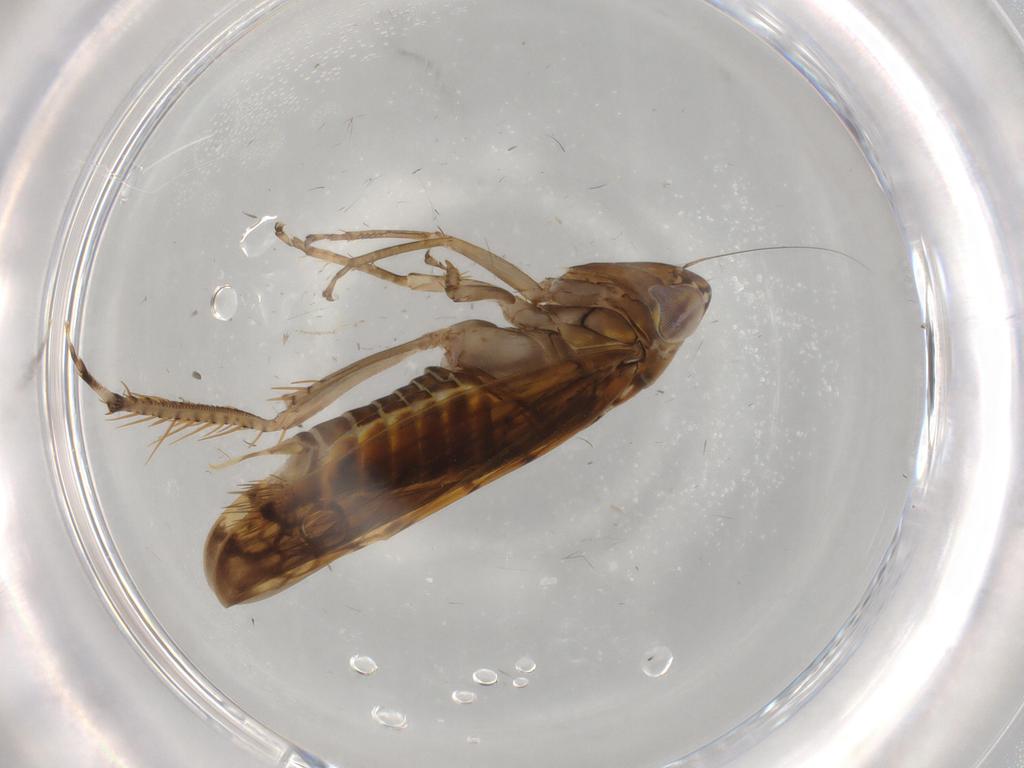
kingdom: Animalia
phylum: Arthropoda
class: Insecta
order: Hemiptera
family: Cicadellidae
